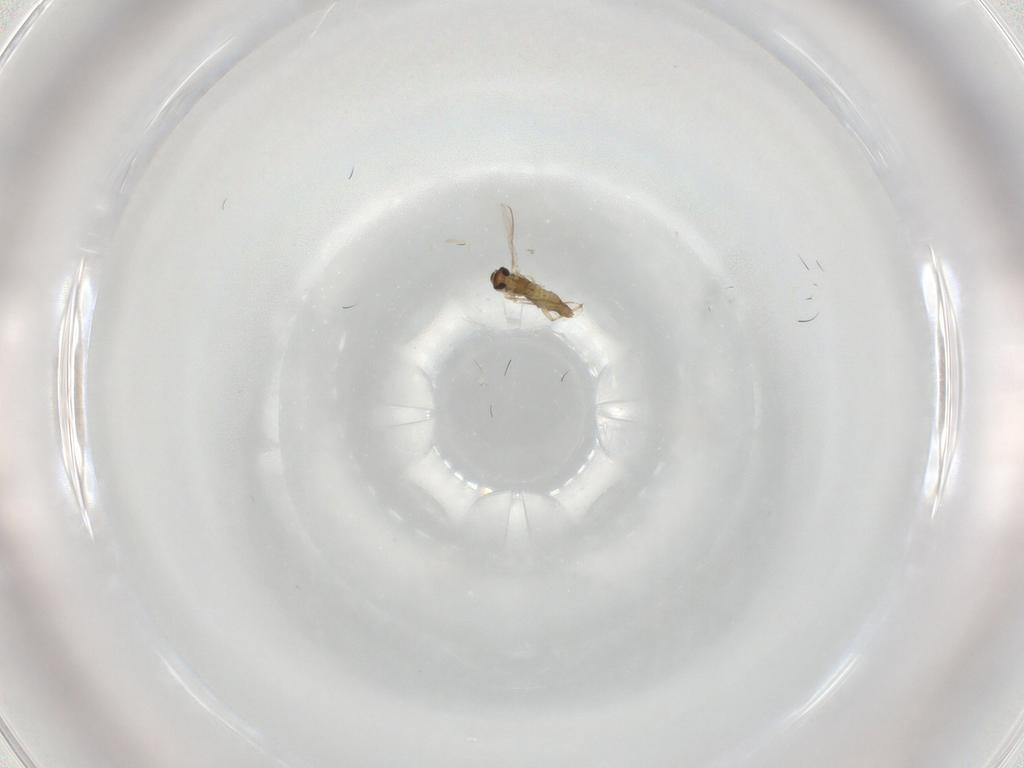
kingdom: Animalia
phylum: Arthropoda
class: Insecta
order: Diptera
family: Chironomidae
